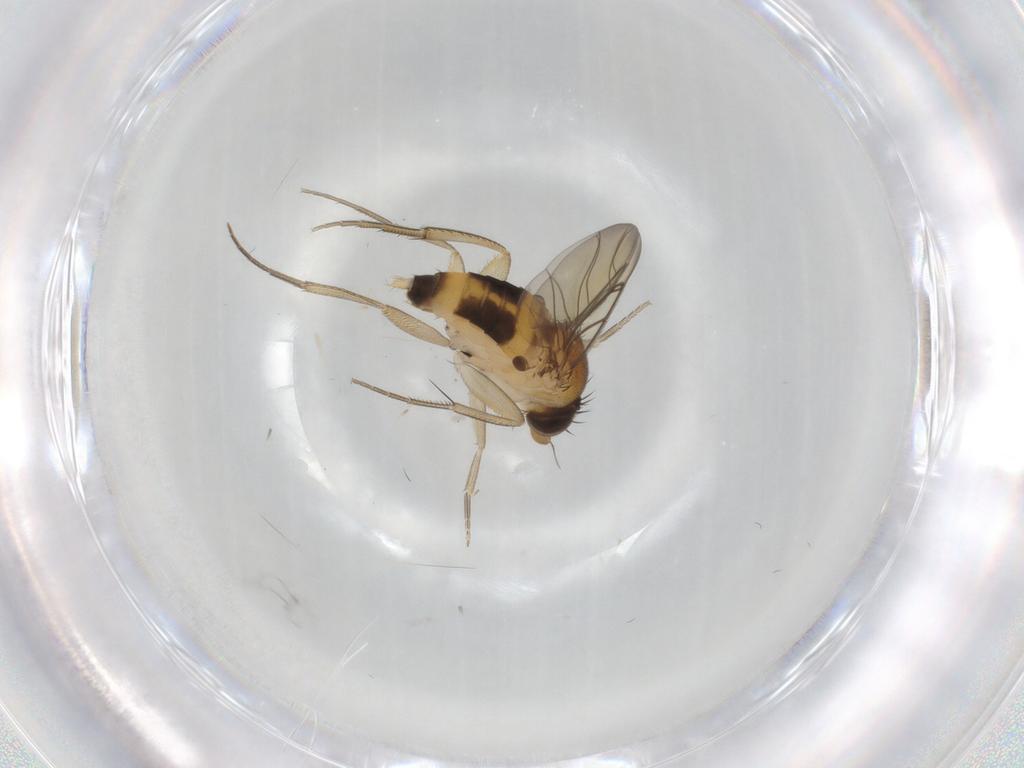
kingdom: Animalia
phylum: Arthropoda
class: Insecta
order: Diptera
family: Phoridae
